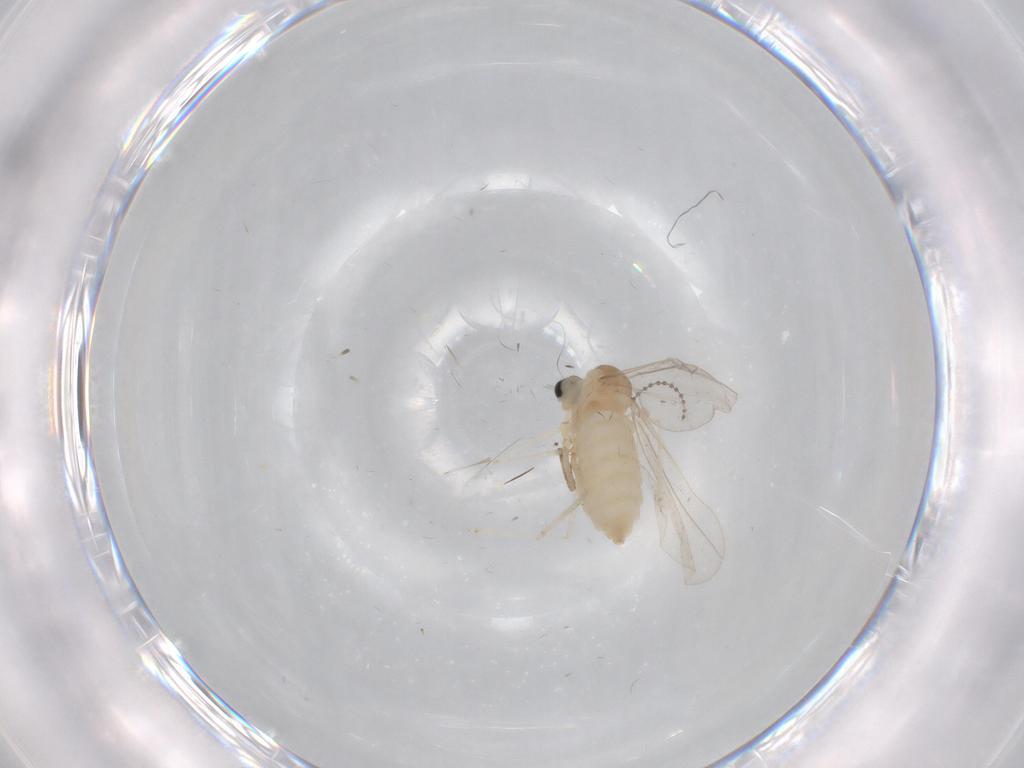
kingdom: Animalia
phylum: Arthropoda
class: Insecta
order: Diptera
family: Cecidomyiidae
